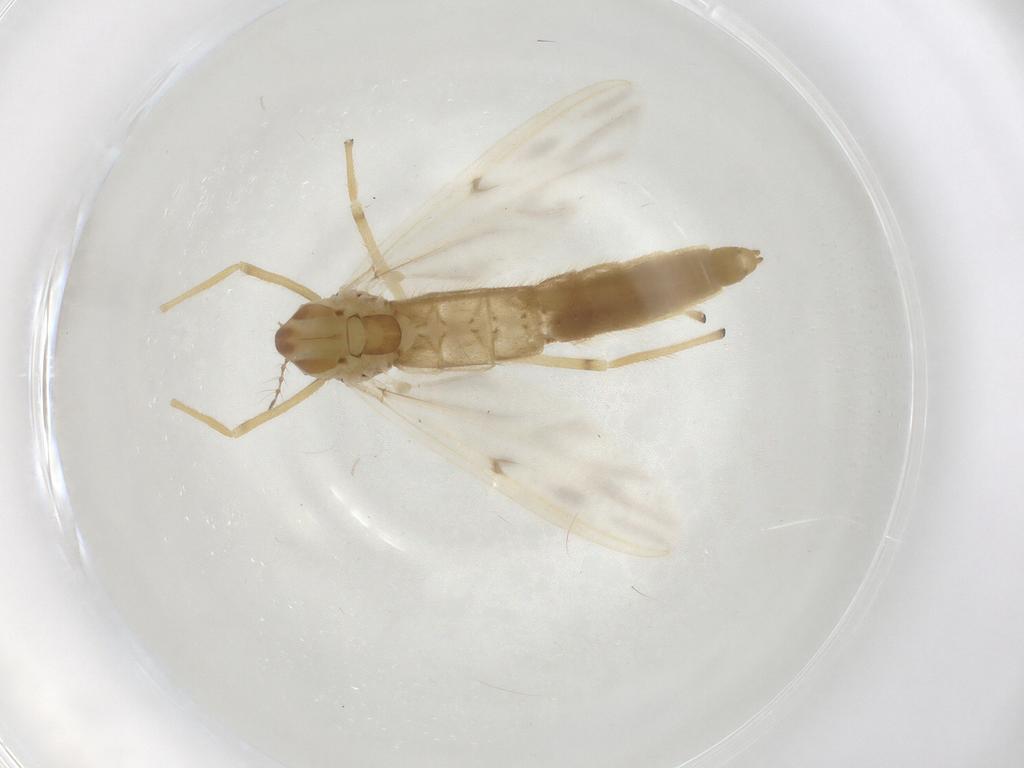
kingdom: Animalia
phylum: Arthropoda
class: Insecta
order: Diptera
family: Chironomidae
